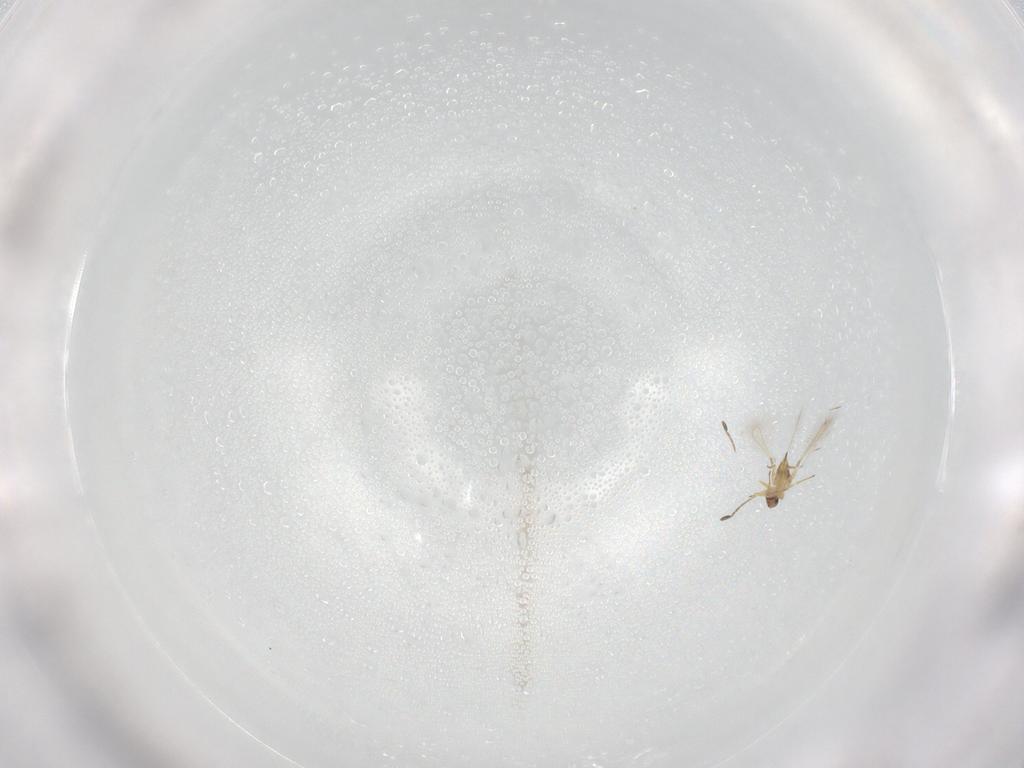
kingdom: Animalia
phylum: Arthropoda
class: Insecta
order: Hymenoptera
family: Mymaridae
